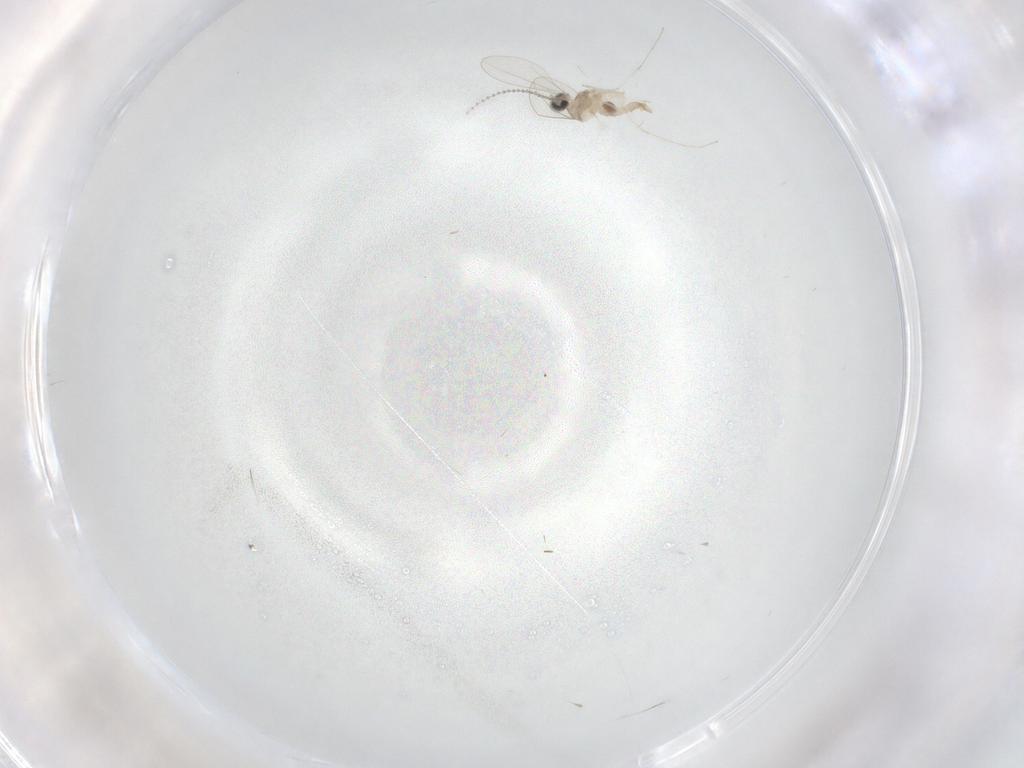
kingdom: Animalia
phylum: Arthropoda
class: Insecta
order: Diptera
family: Cecidomyiidae
